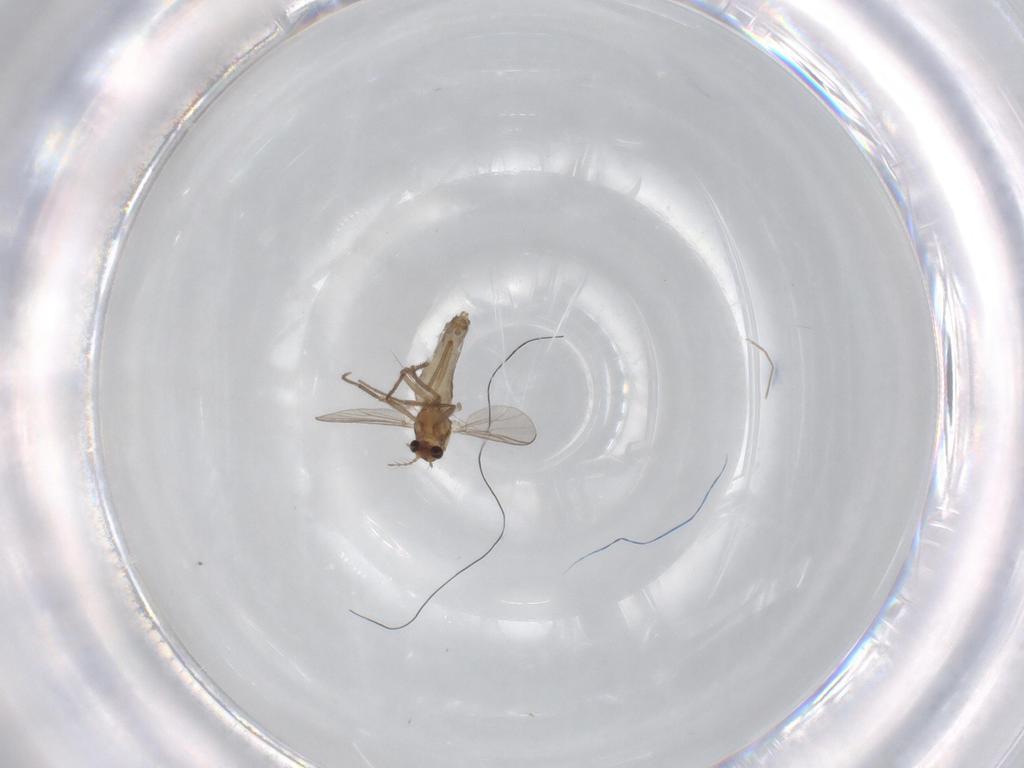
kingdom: Animalia
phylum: Arthropoda
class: Insecta
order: Diptera
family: Chironomidae
